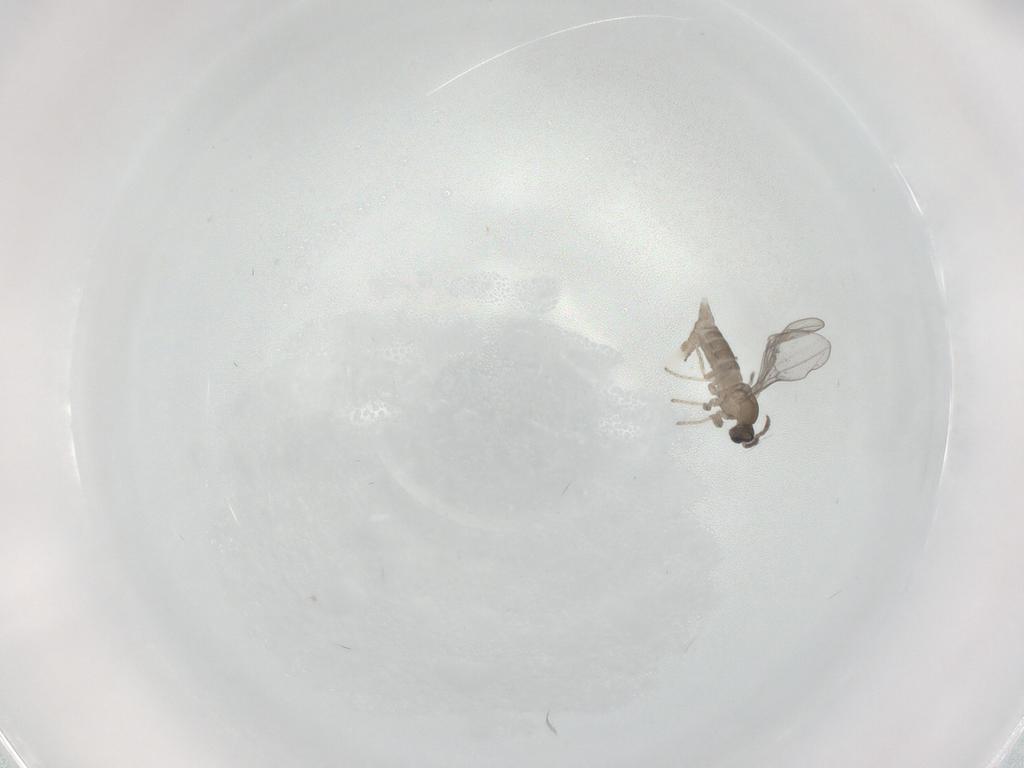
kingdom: Animalia
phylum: Arthropoda
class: Insecta
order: Diptera
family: Cecidomyiidae
